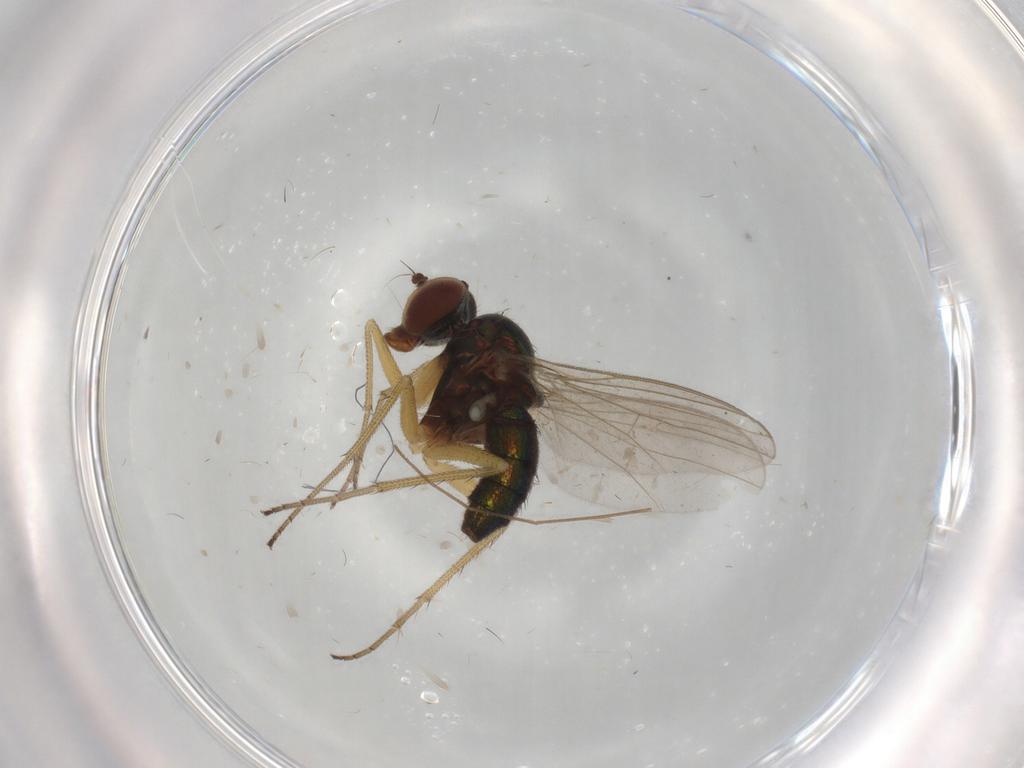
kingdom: Animalia
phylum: Arthropoda
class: Insecta
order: Diptera
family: Dolichopodidae
